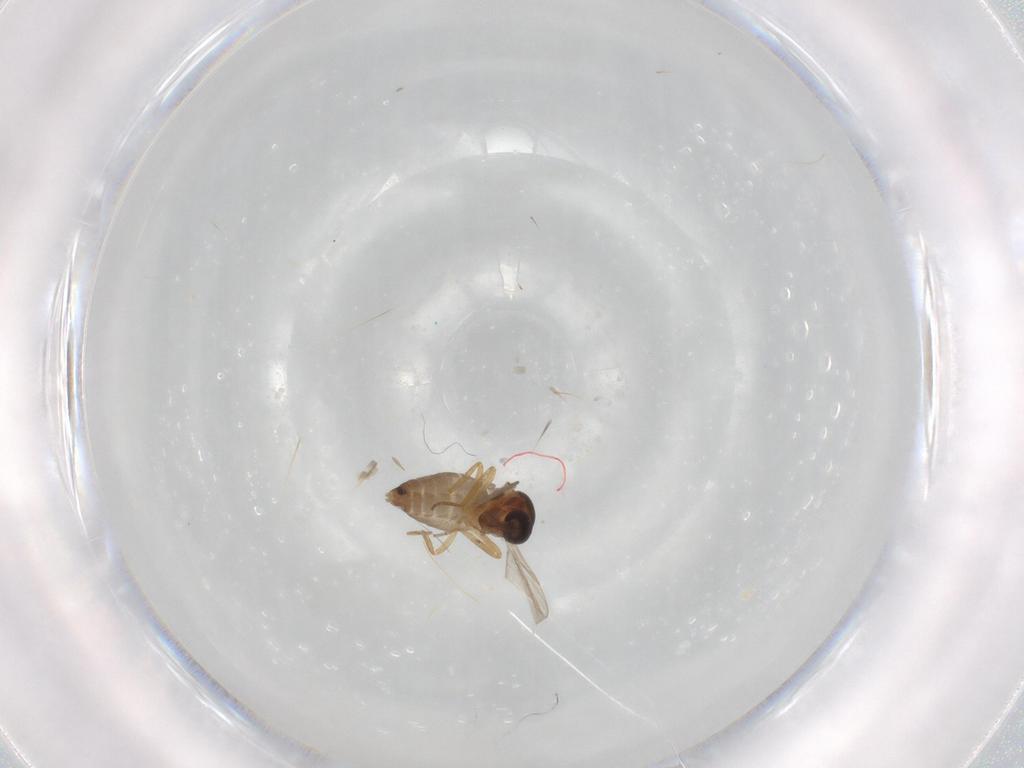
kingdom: Animalia
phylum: Arthropoda
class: Insecta
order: Diptera
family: Ceratopogonidae
